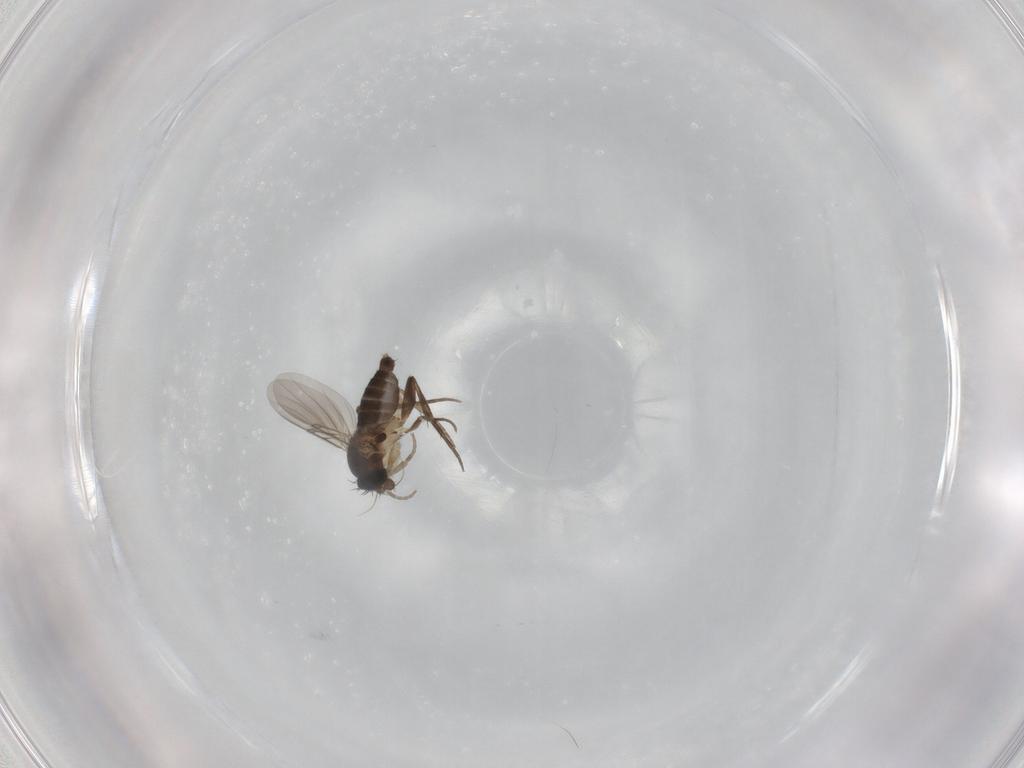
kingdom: Animalia
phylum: Arthropoda
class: Insecta
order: Diptera
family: Phoridae
